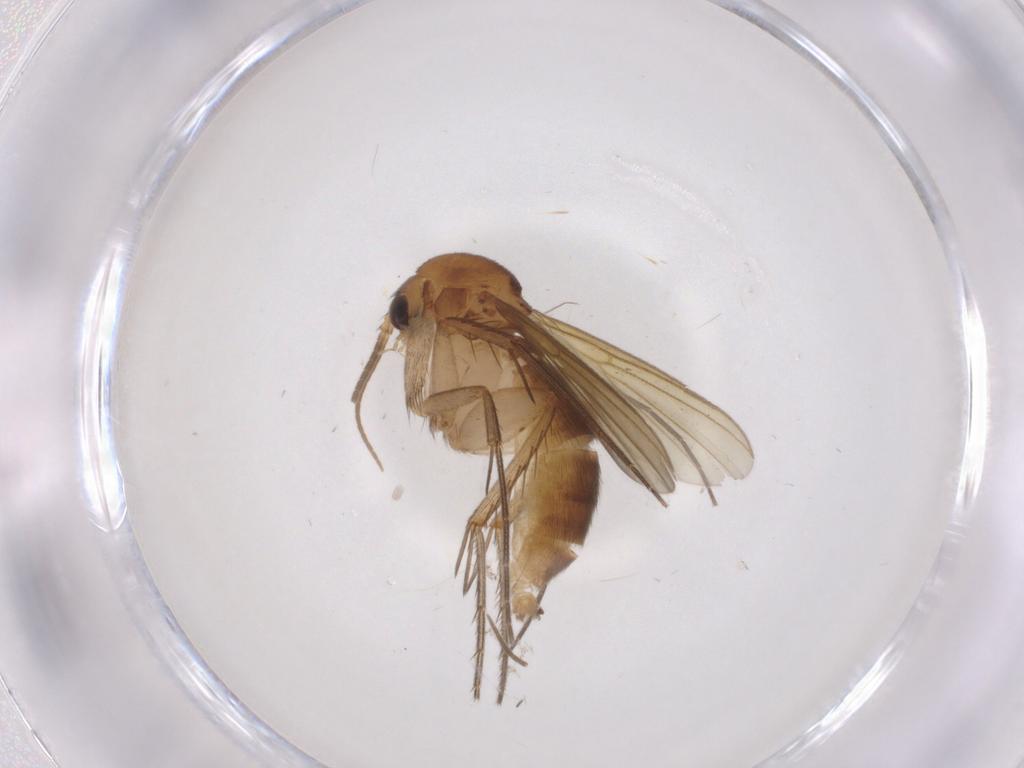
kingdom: Animalia
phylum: Arthropoda
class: Insecta
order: Diptera
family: Mycetophilidae
